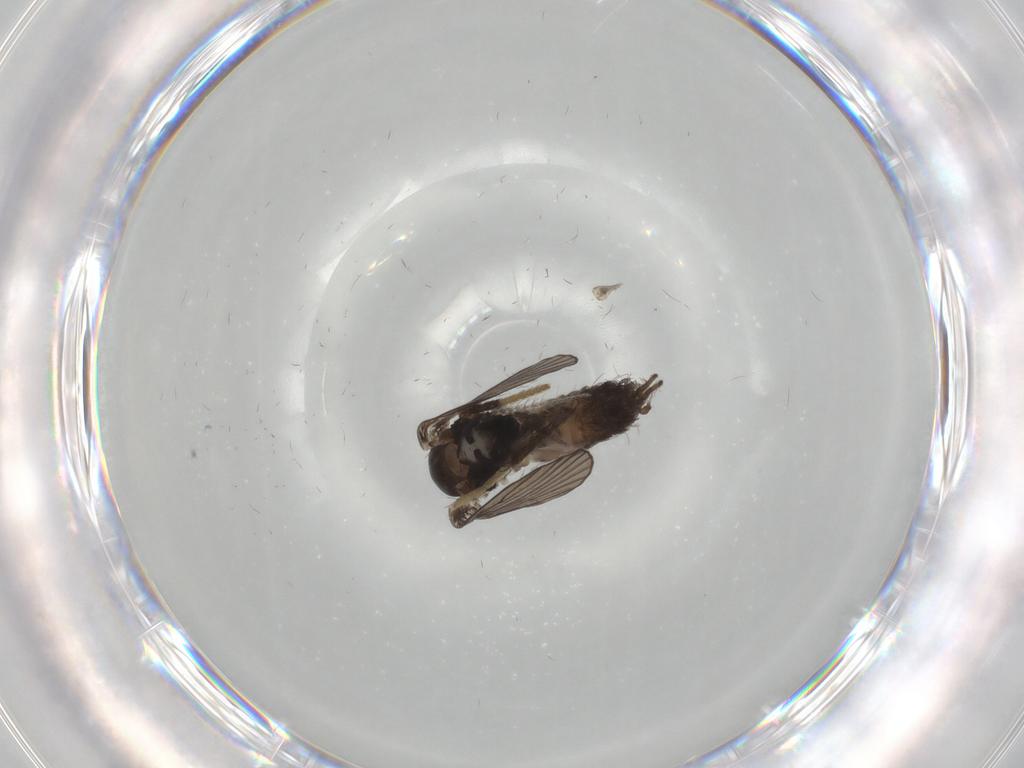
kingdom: Animalia
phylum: Arthropoda
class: Insecta
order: Diptera
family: Psychodidae
